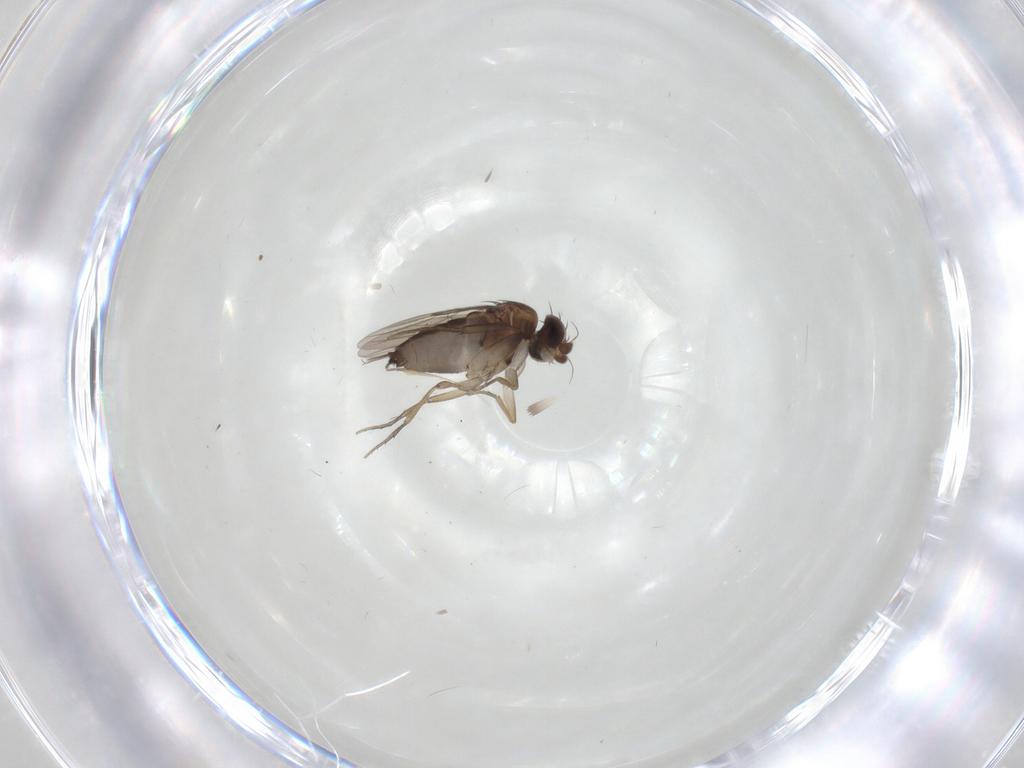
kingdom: Animalia
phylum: Arthropoda
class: Insecta
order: Diptera
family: Phoridae
